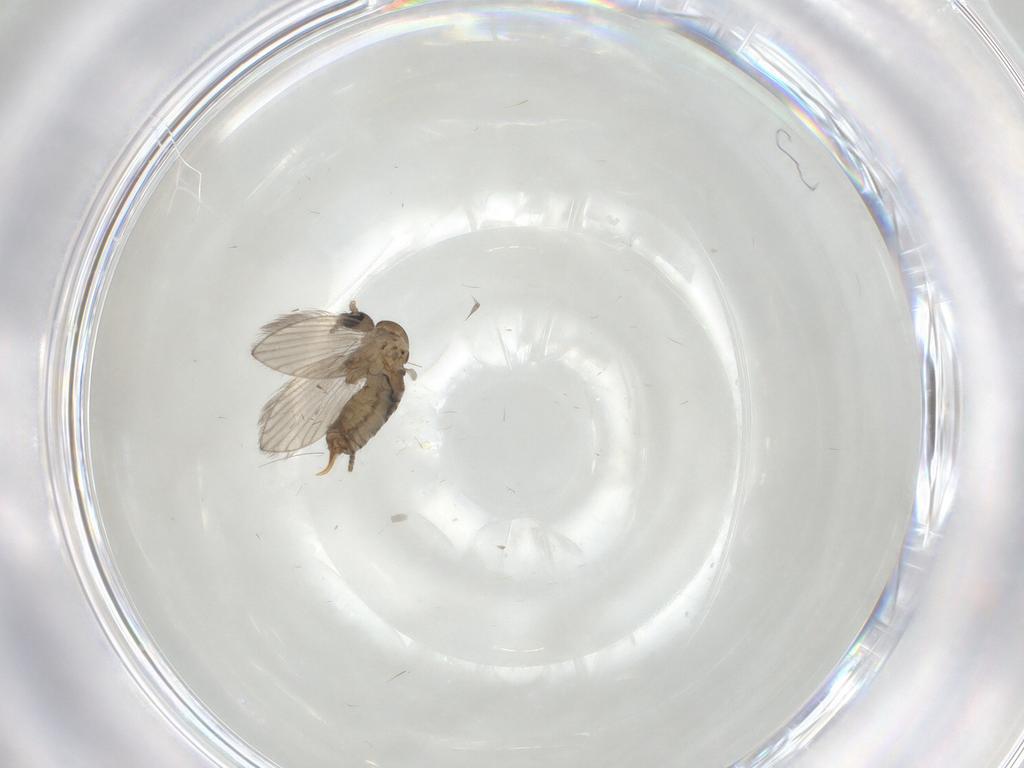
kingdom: Animalia
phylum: Arthropoda
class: Insecta
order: Diptera
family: Psychodidae
